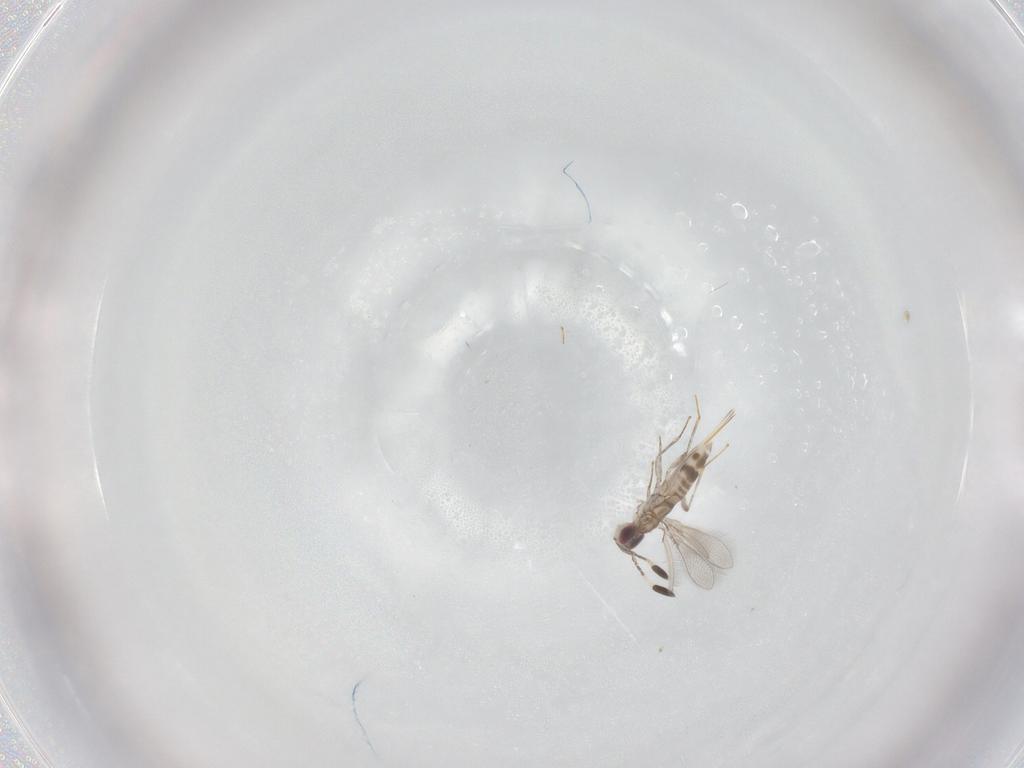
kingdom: Animalia
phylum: Arthropoda
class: Insecta
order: Hymenoptera
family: Mymaridae
